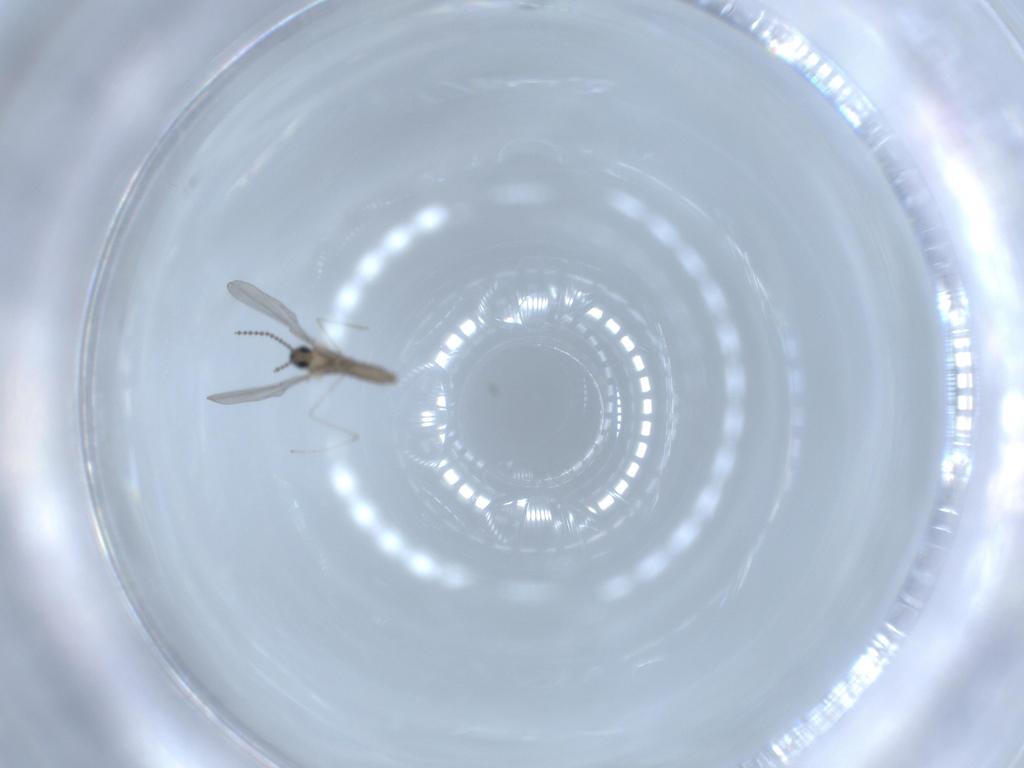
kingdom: Animalia
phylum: Arthropoda
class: Insecta
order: Diptera
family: Cecidomyiidae
